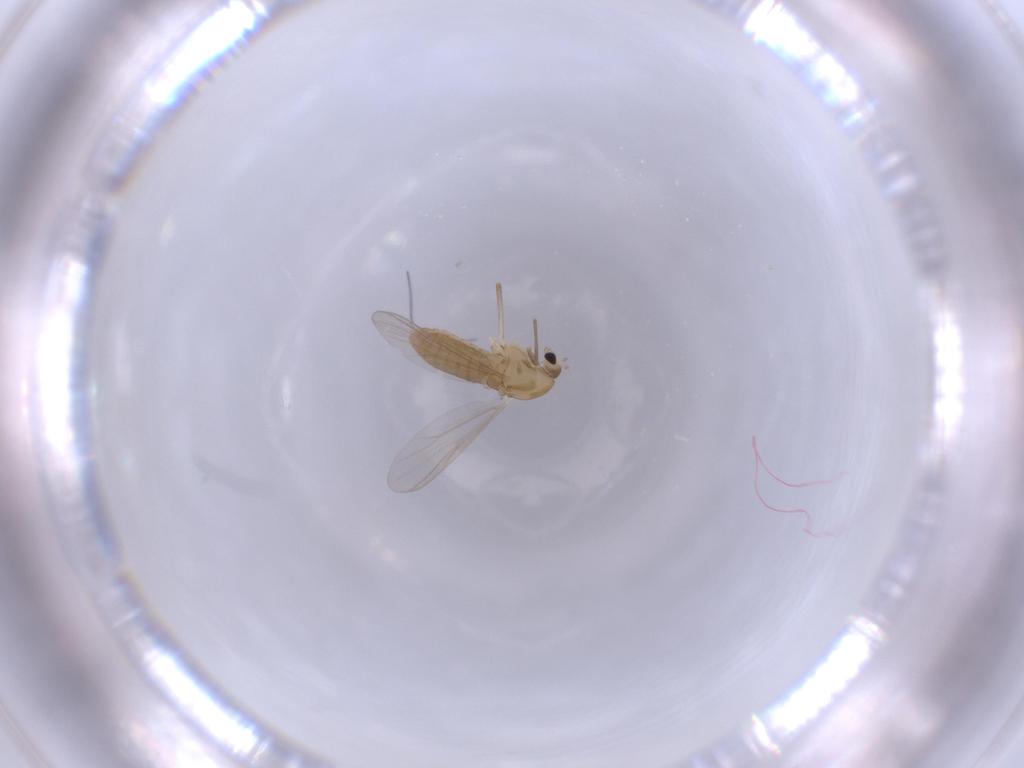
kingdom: Animalia
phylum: Arthropoda
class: Insecta
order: Diptera
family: Chironomidae
